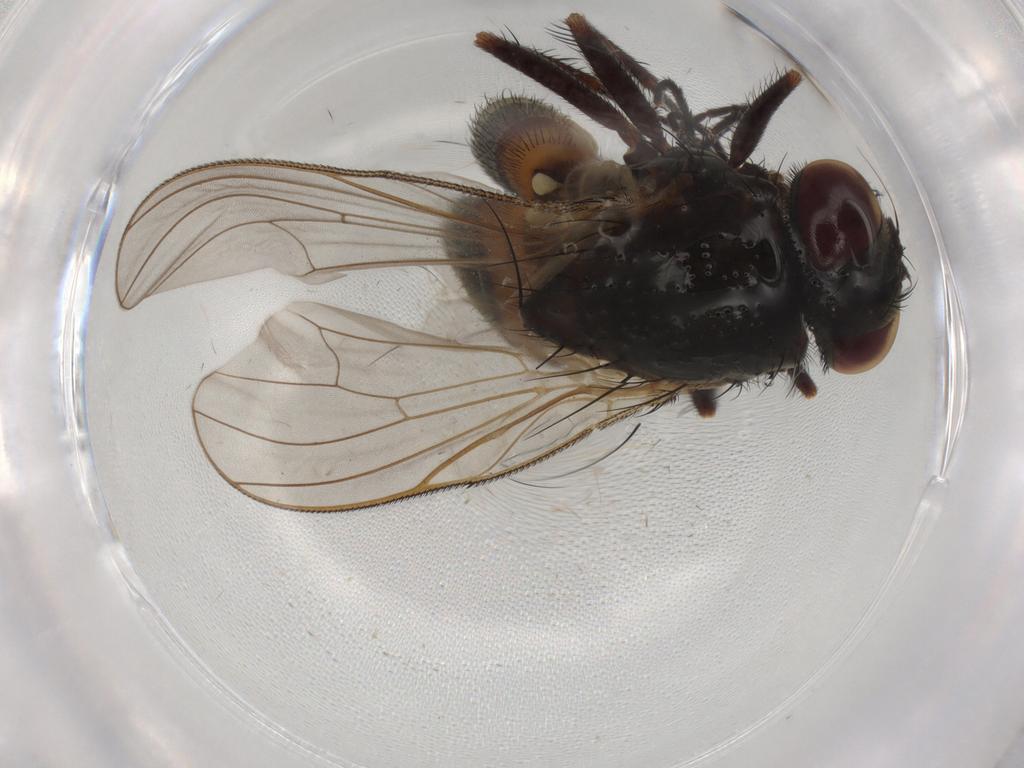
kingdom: Animalia
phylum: Arthropoda
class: Insecta
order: Diptera
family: Fannia
